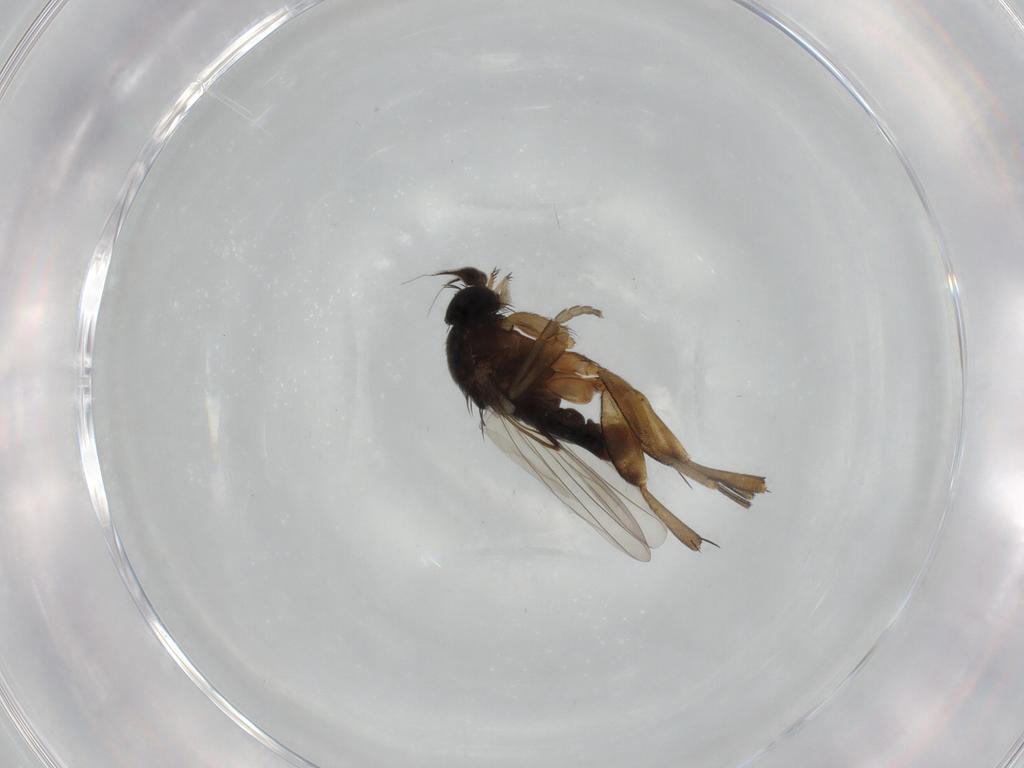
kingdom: Animalia
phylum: Arthropoda
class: Insecta
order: Diptera
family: Phoridae
